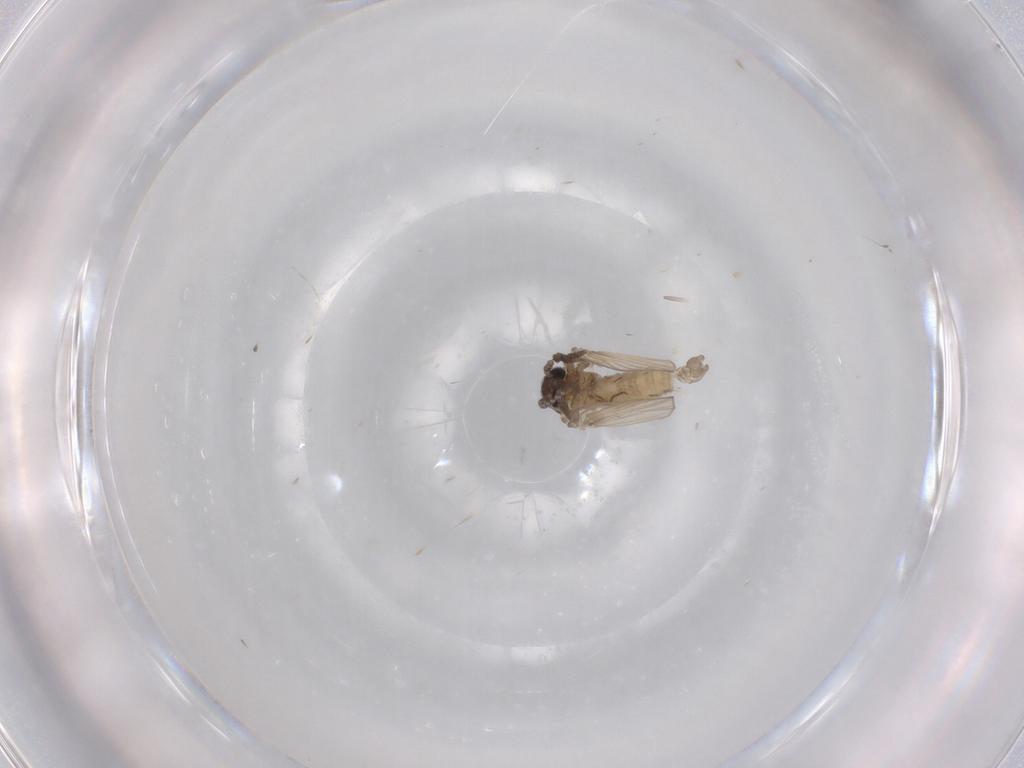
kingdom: Animalia
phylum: Arthropoda
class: Insecta
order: Diptera
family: Psychodidae
